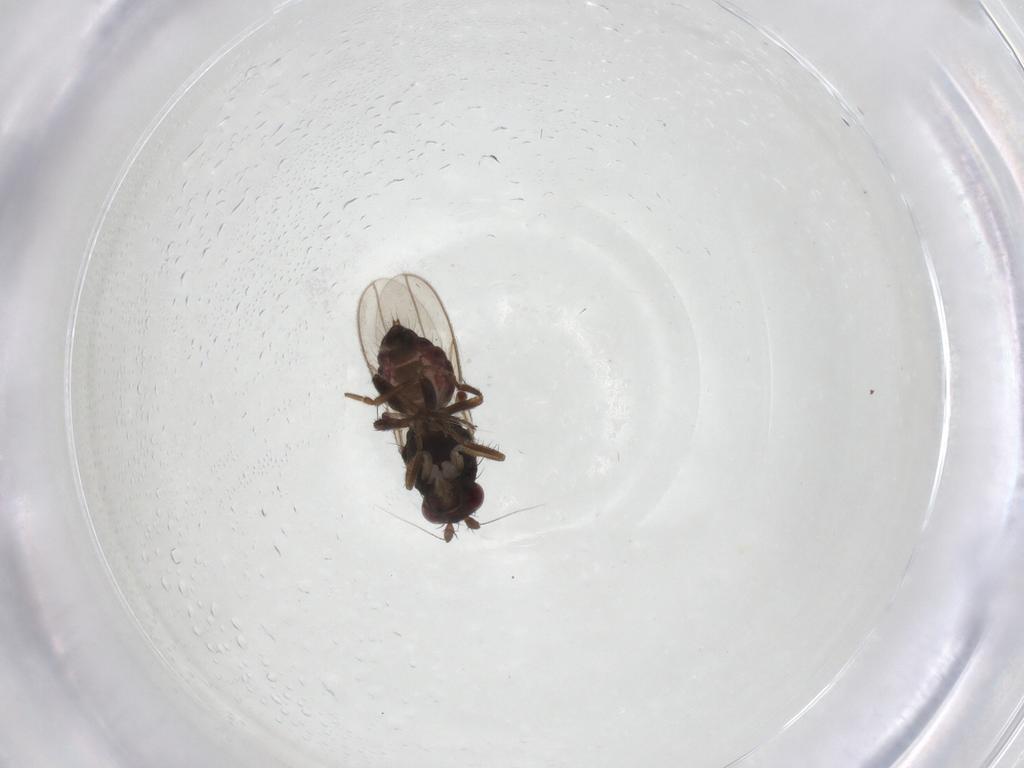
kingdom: Animalia
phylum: Arthropoda
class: Insecta
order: Diptera
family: Sphaeroceridae
